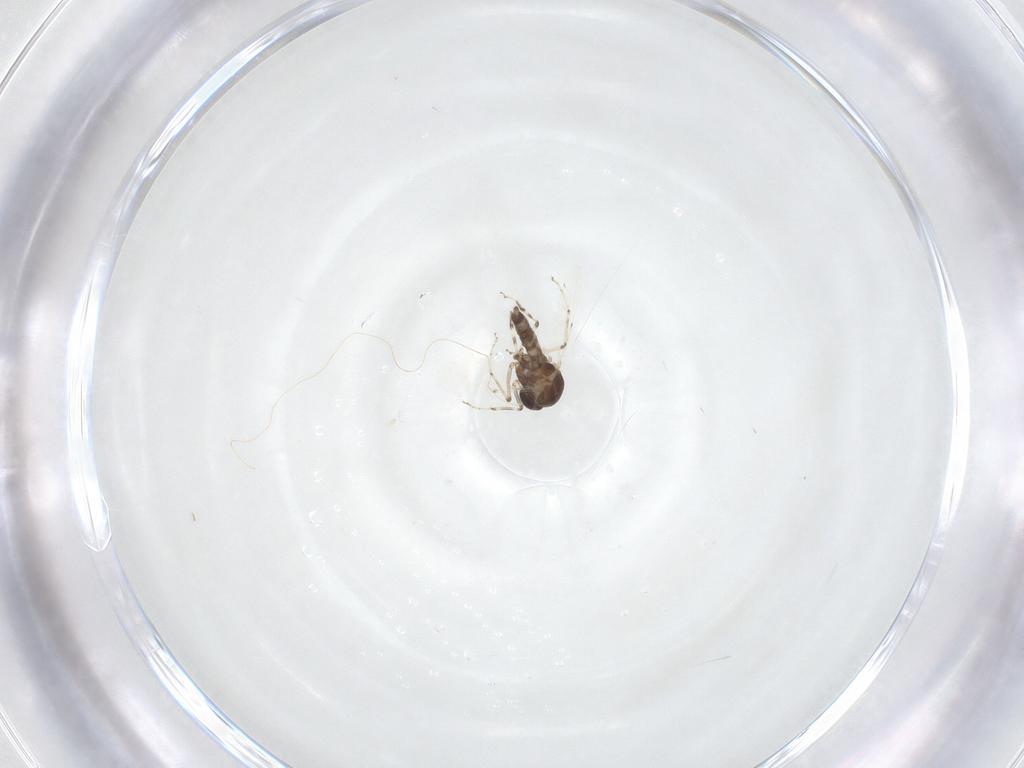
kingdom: Animalia
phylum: Arthropoda
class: Insecta
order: Diptera
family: Ceratopogonidae
